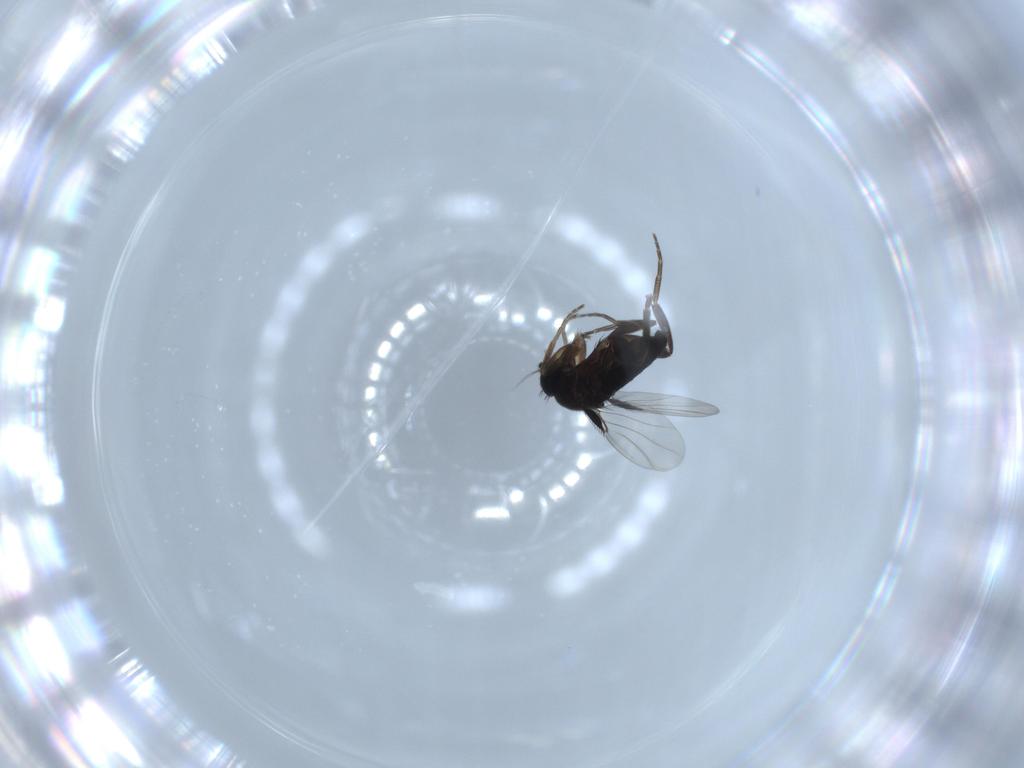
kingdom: Animalia
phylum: Arthropoda
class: Insecta
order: Diptera
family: Phoridae
